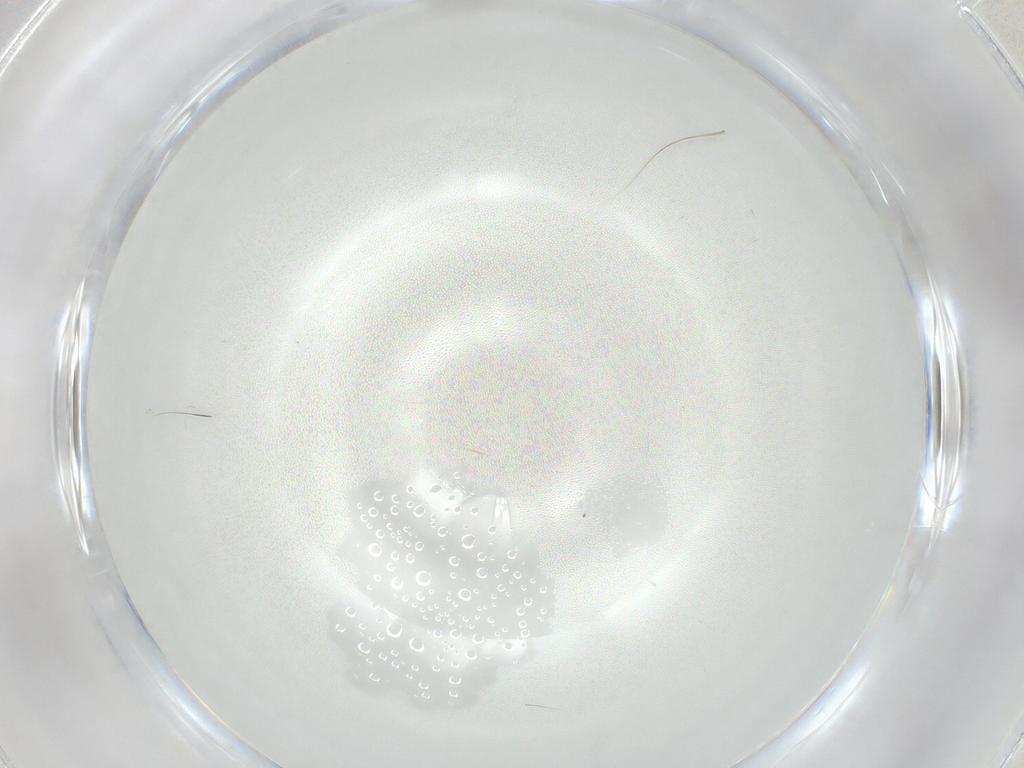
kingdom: Animalia
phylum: Arthropoda
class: Insecta
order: Diptera
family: Cecidomyiidae
